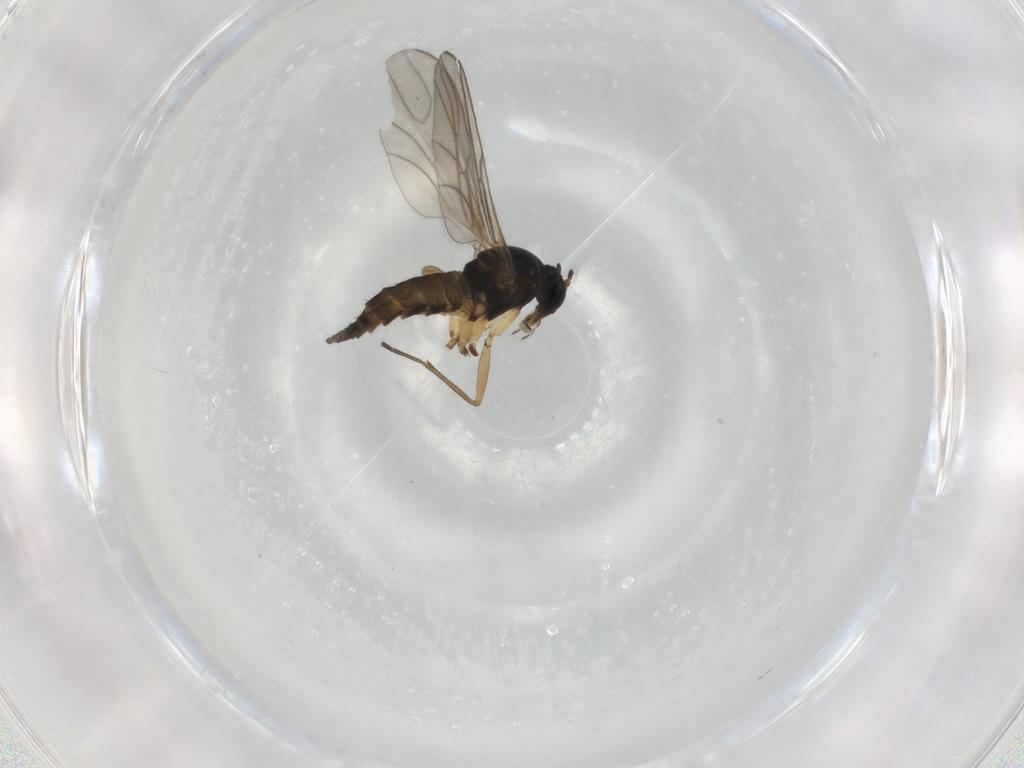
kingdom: Animalia
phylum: Arthropoda
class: Insecta
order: Diptera
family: Sciaridae
